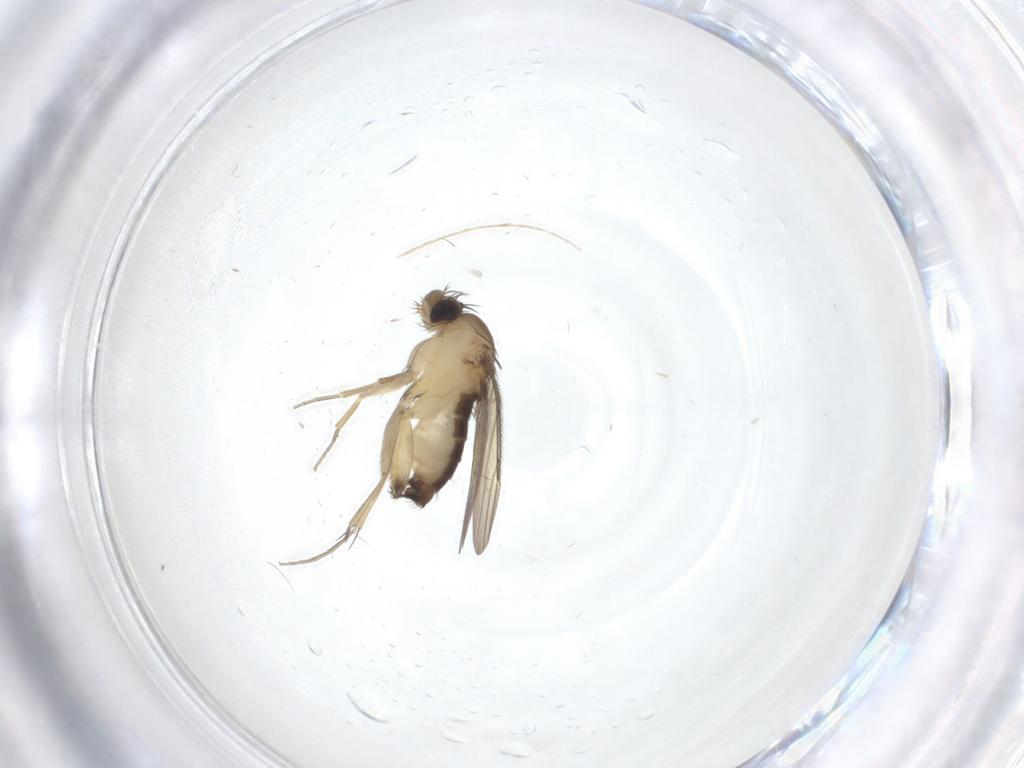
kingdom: Animalia
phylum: Arthropoda
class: Insecta
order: Diptera
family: Phoridae
